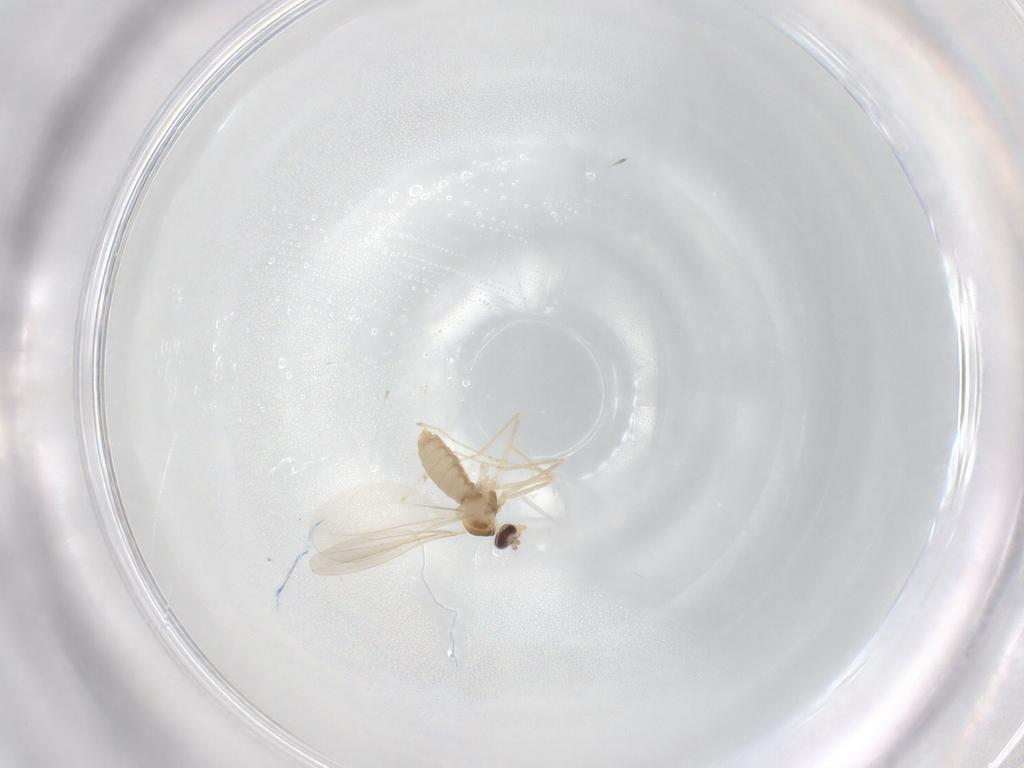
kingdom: Animalia
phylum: Arthropoda
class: Insecta
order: Diptera
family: Cecidomyiidae
